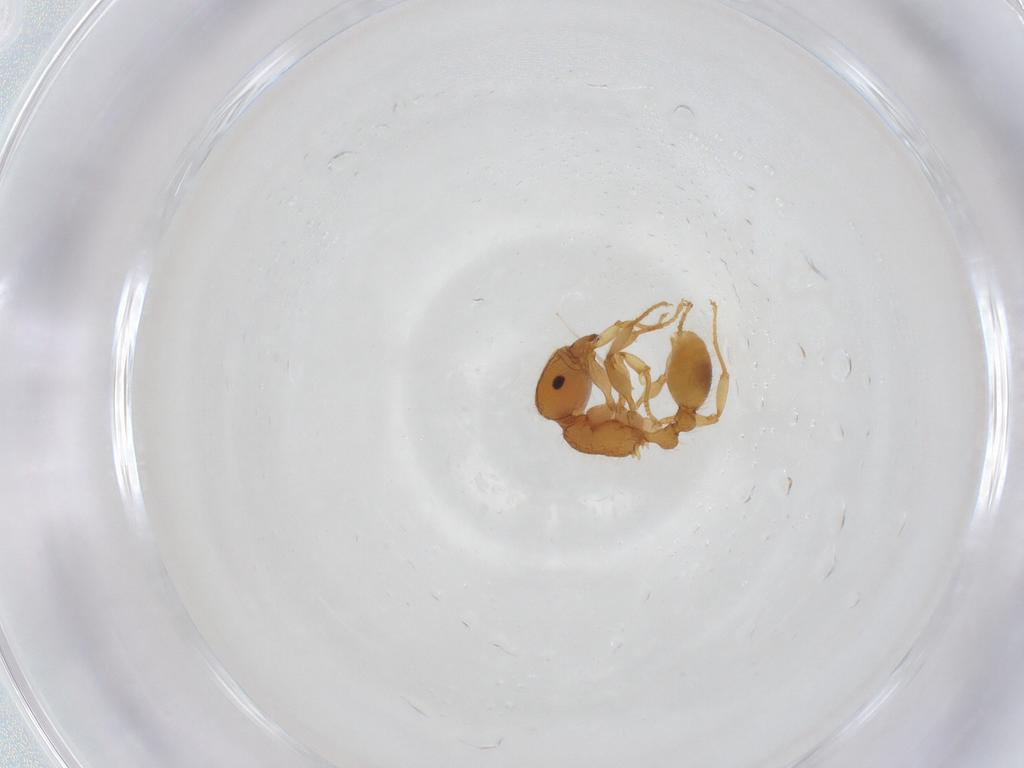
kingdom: Animalia
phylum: Arthropoda
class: Insecta
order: Hymenoptera
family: Formicidae
